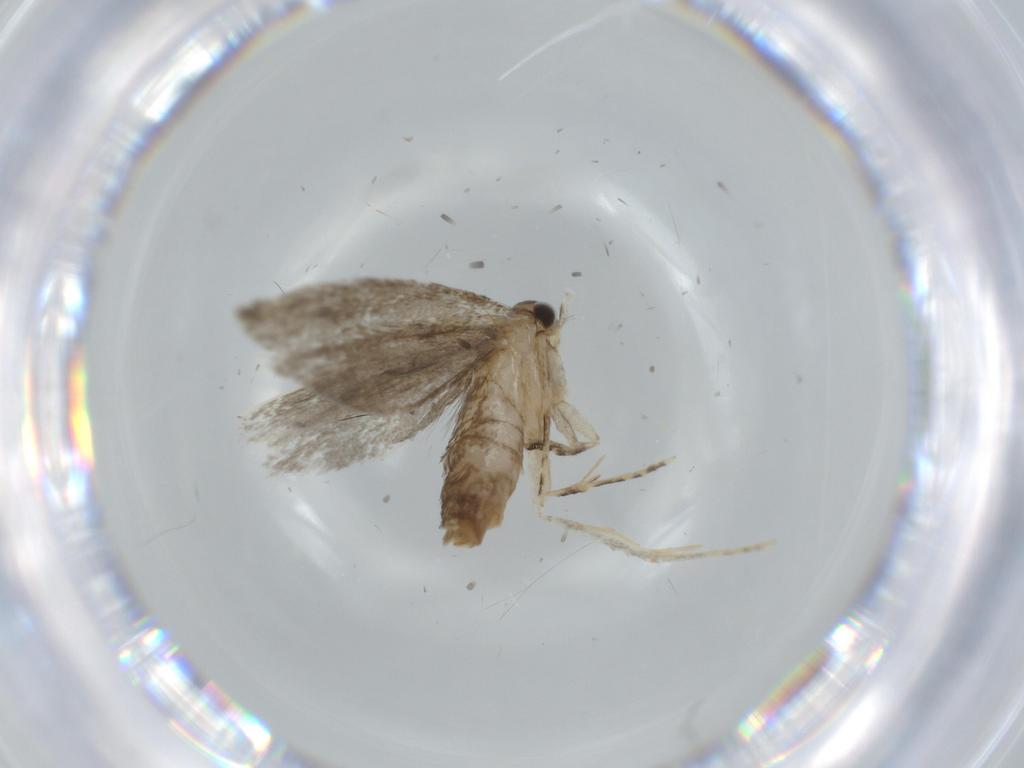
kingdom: Animalia
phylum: Arthropoda
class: Insecta
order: Lepidoptera
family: Tineidae
